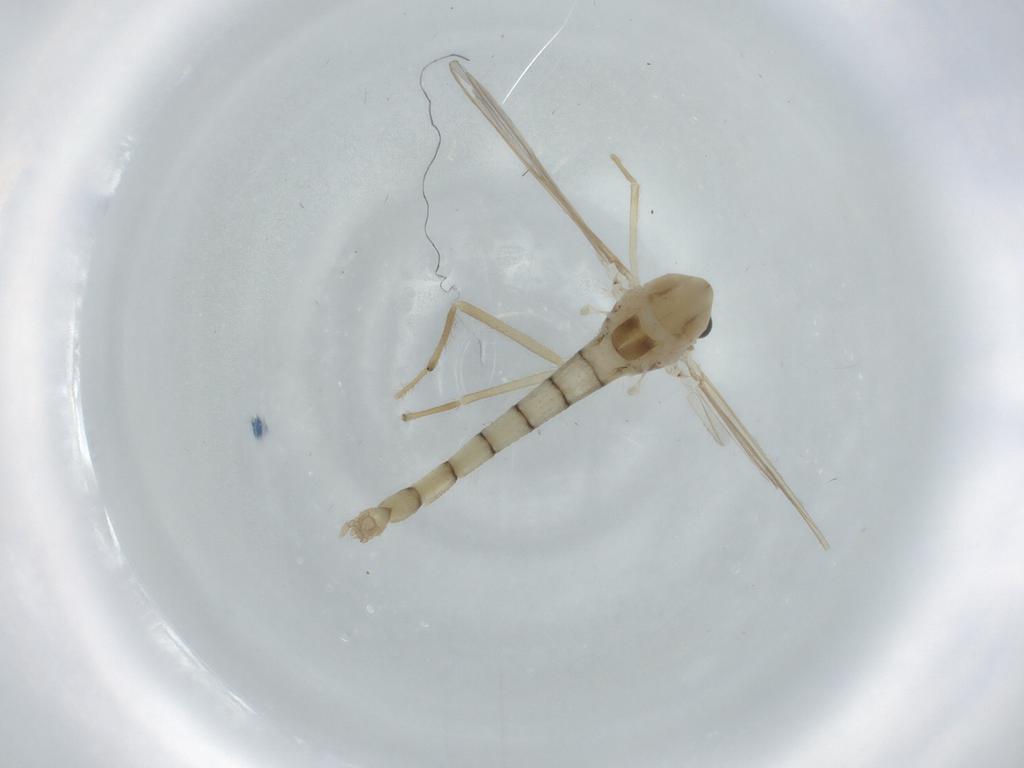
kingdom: Animalia
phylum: Arthropoda
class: Insecta
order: Diptera
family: Chironomidae
